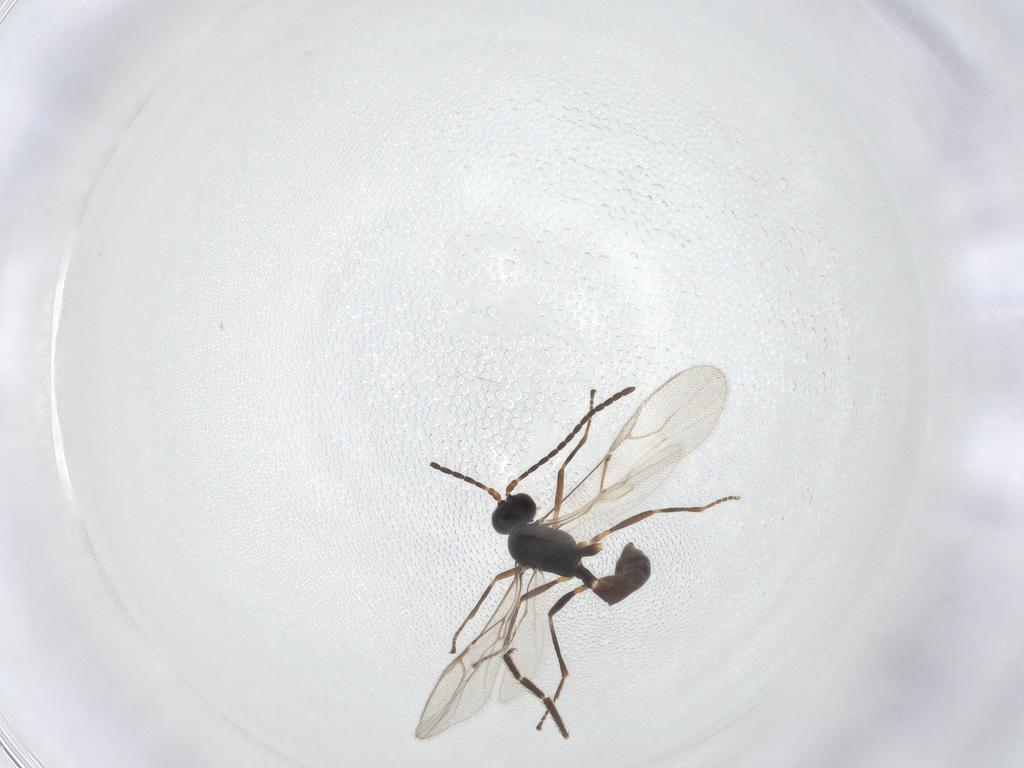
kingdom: Animalia
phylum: Arthropoda
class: Insecta
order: Hymenoptera
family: Braconidae
